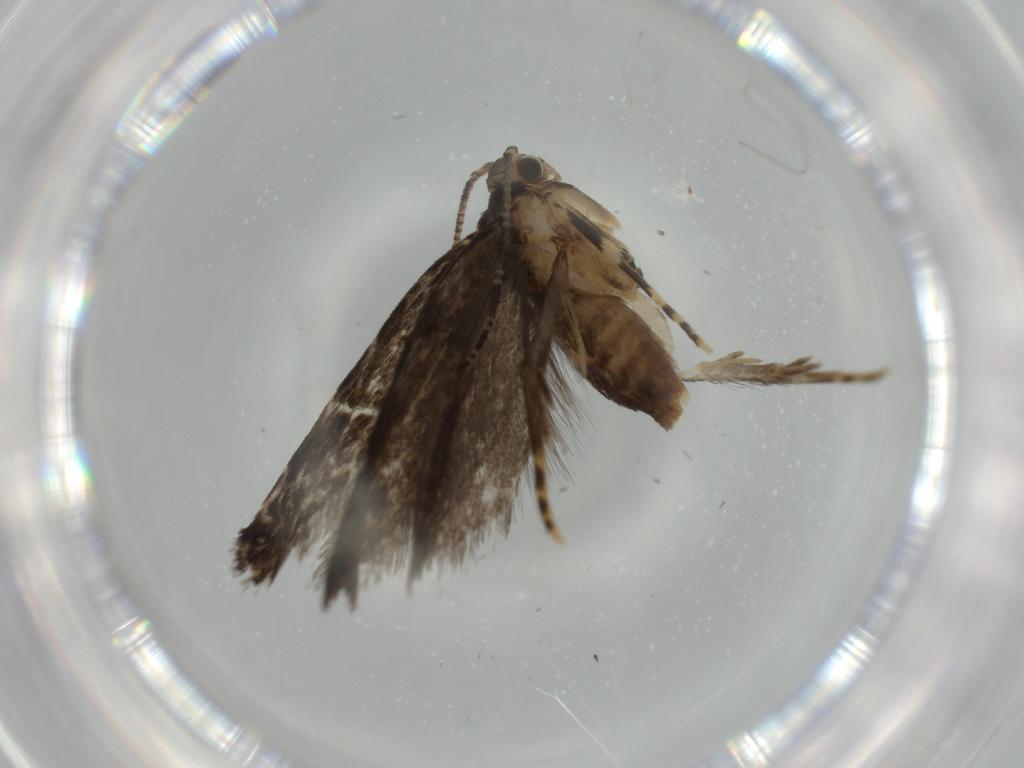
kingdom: Animalia
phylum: Arthropoda
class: Insecta
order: Lepidoptera
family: Tineidae
